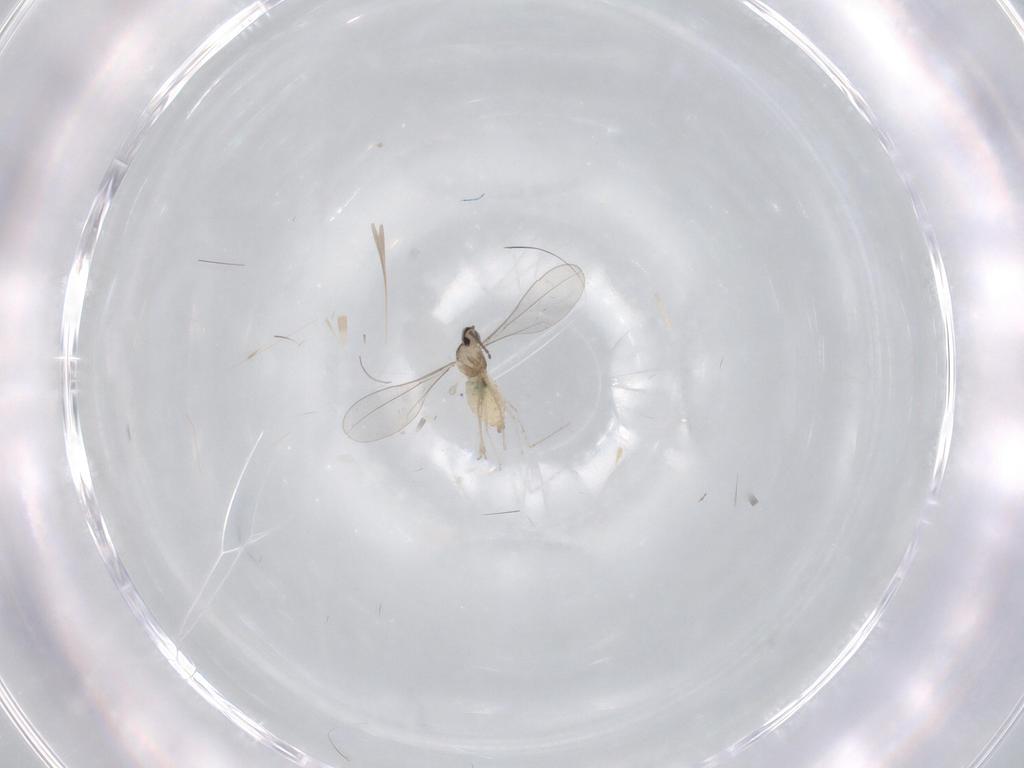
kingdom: Animalia
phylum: Arthropoda
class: Insecta
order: Diptera
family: Cecidomyiidae
